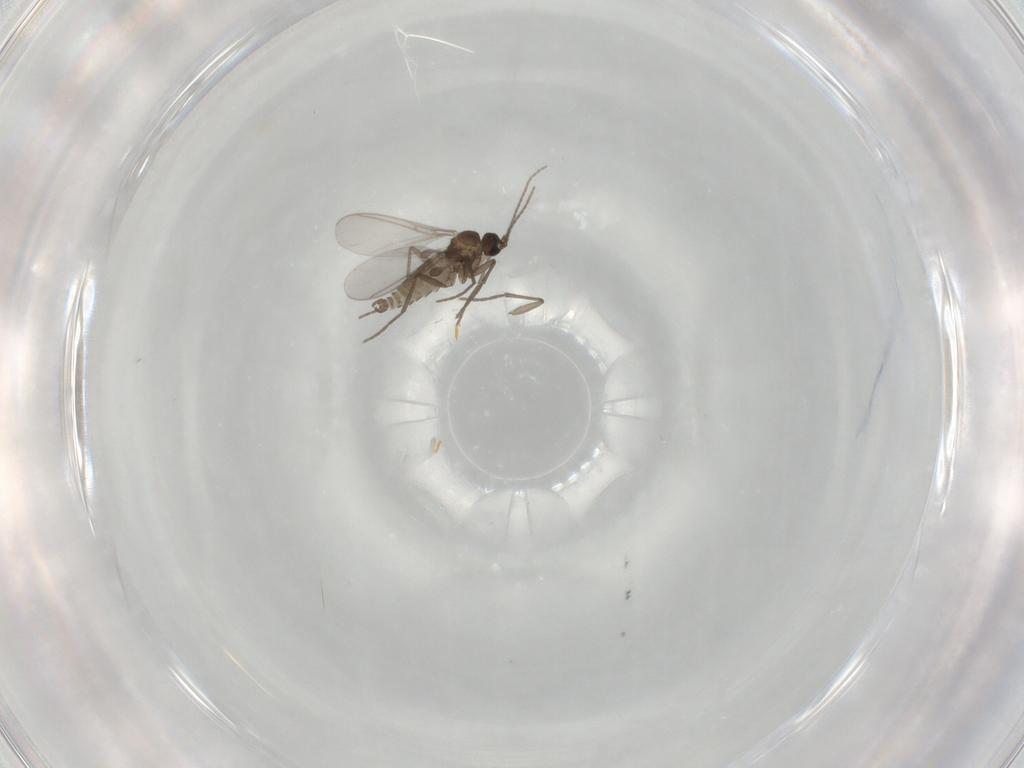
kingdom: Animalia
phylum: Arthropoda
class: Insecta
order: Diptera
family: Sciaridae
